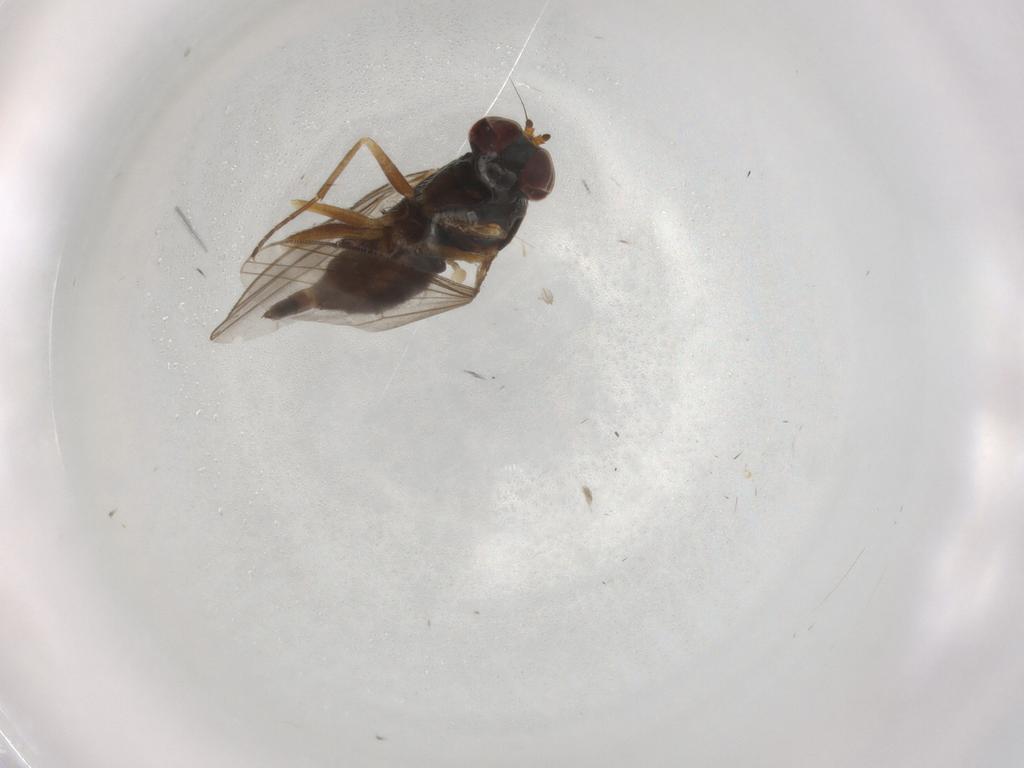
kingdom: Animalia
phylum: Arthropoda
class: Insecta
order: Diptera
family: Dolichopodidae
